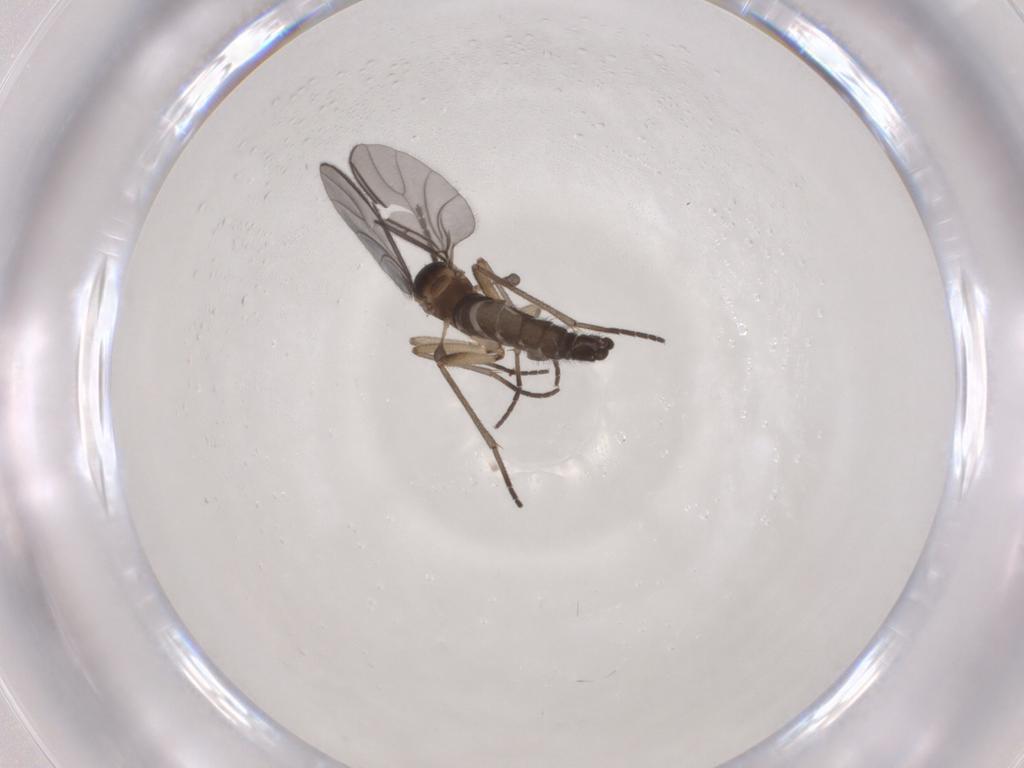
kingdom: Animalia
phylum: Arthropoda
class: Insecta
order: Diptera
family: Sciaridae
